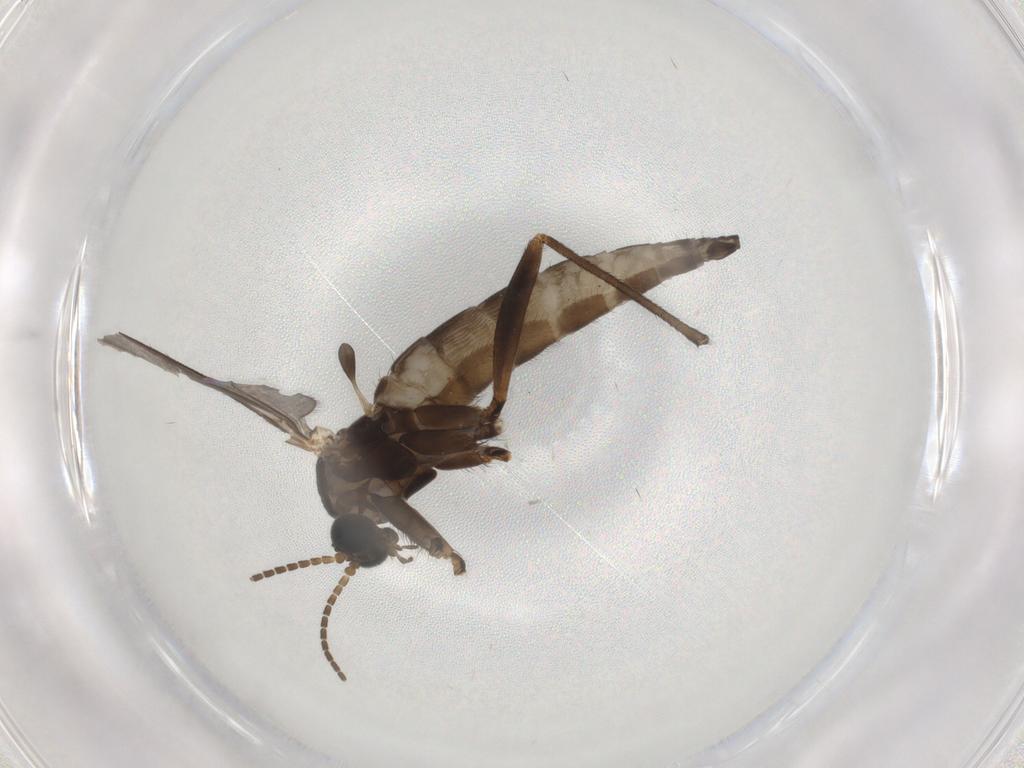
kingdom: Animalia
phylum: Arthropoda
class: Insecta
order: Diptera
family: Sciaridae
